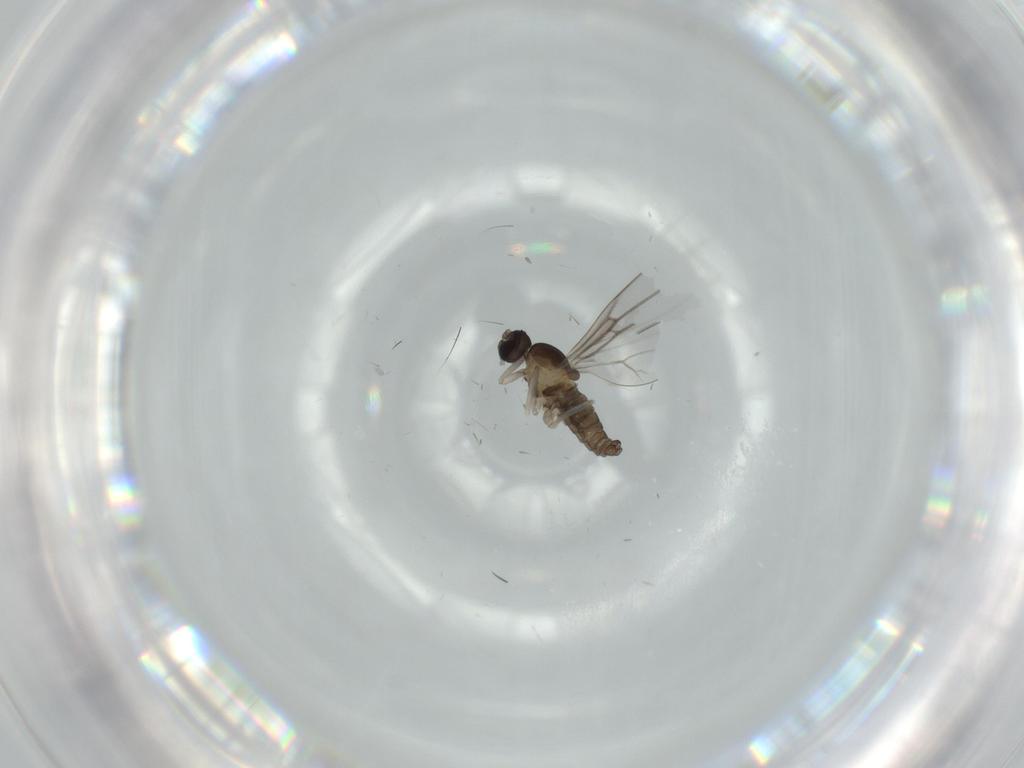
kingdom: Animalia
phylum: Arthropoda
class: Insecta
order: Diptera
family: Cecidomyiidae
